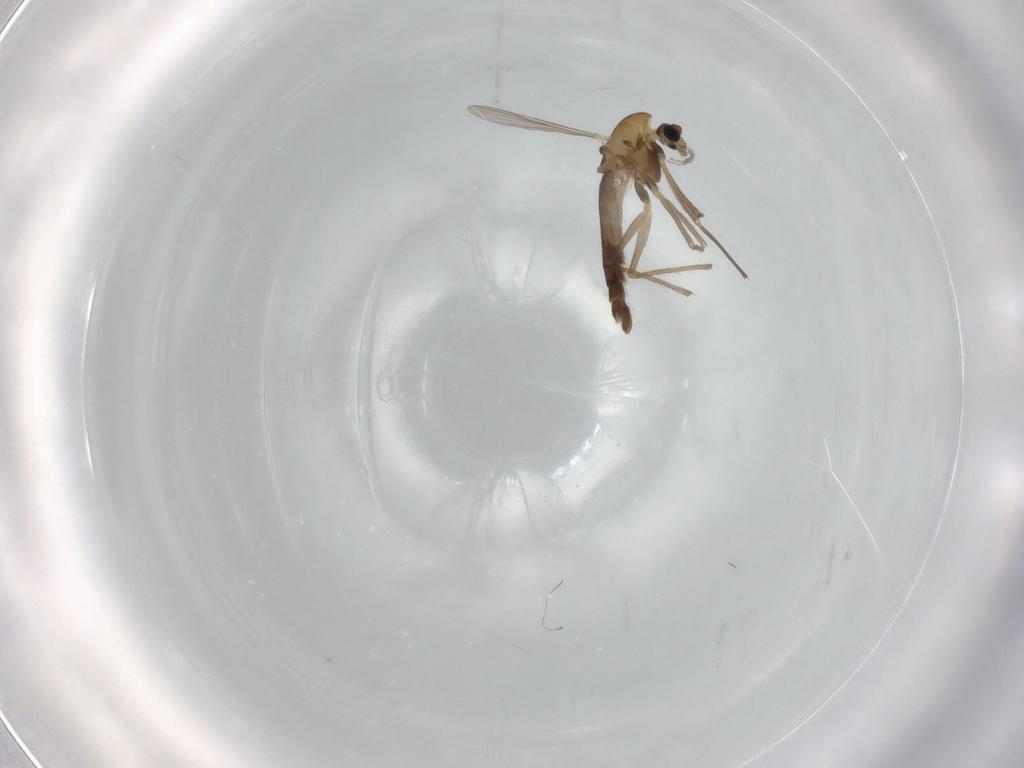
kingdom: Animalia
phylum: Arthropoda
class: Insecta
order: Diptera
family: Chironomidae
